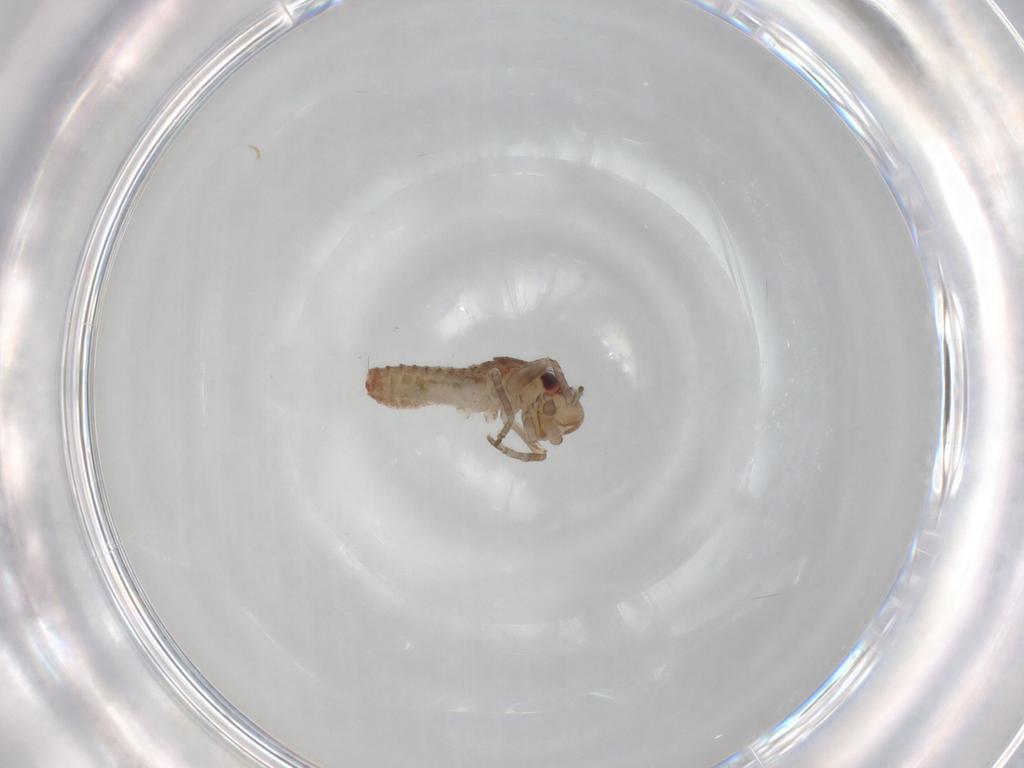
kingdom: Animalia
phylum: Arthropoda
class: Insecta
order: Orthoptera
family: Mogoplistidae
